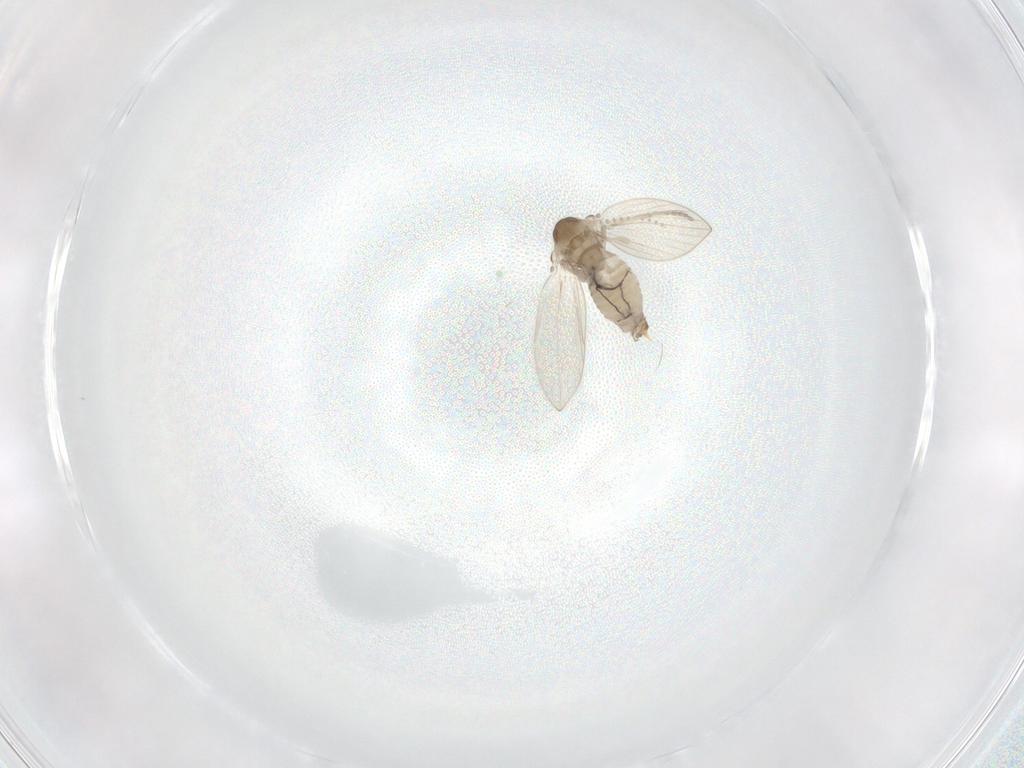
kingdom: Animalia
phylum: Arthropoda
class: Insecta
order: Diptera
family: Psychodidae
